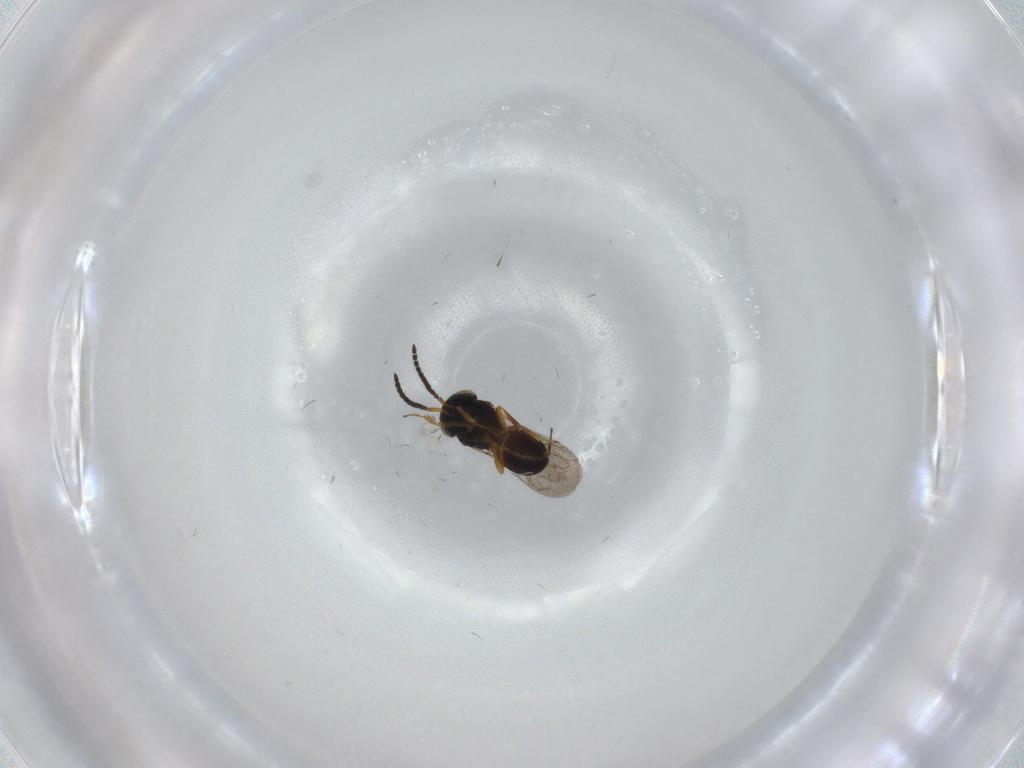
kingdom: Animalia
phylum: Arthropoda
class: Insecta
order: Hymenoptera
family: Scelionidae
